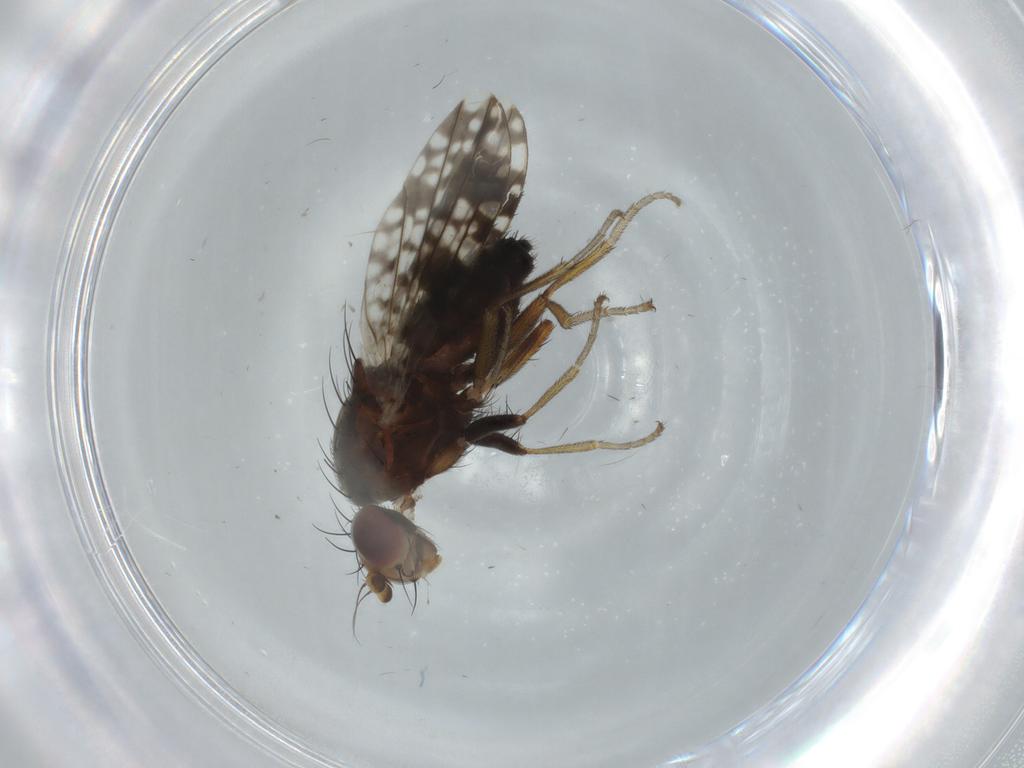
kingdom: Animalia
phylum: Arthropoda
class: Insecta
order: Diptera
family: Tephritidae
